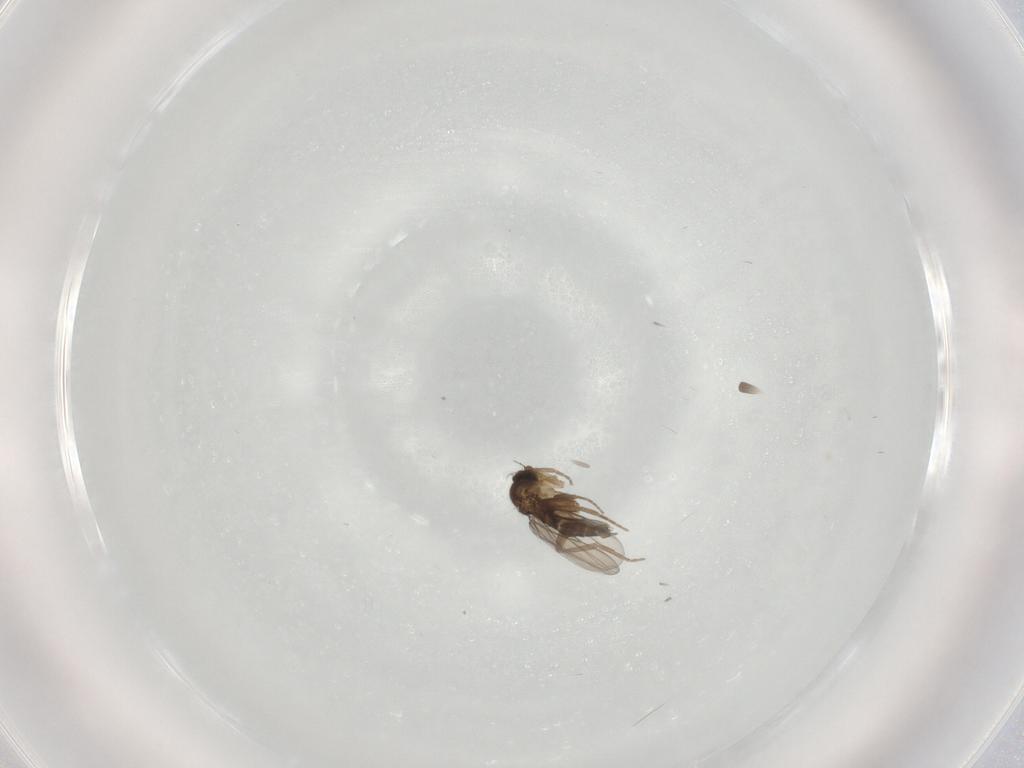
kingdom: Animalia
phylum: Arthropoda
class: Insecta
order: Diptera
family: Phoridae
